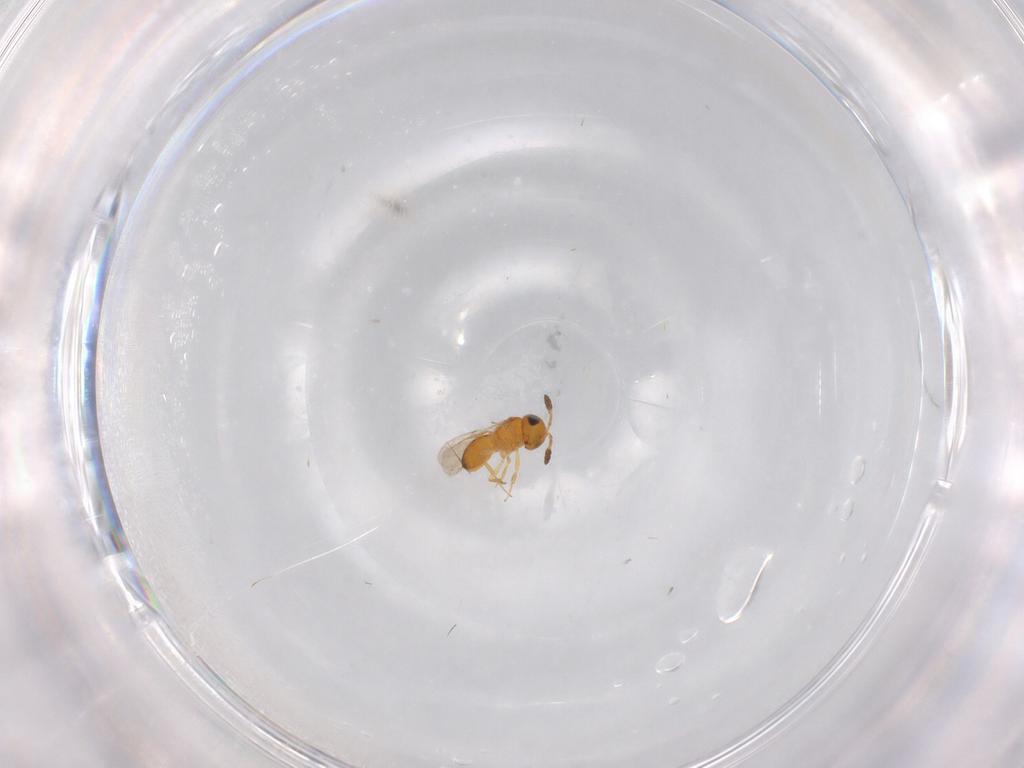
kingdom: Animalia
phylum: Arthropoda
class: Insecta
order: Hymenoptera
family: Scelionidae
